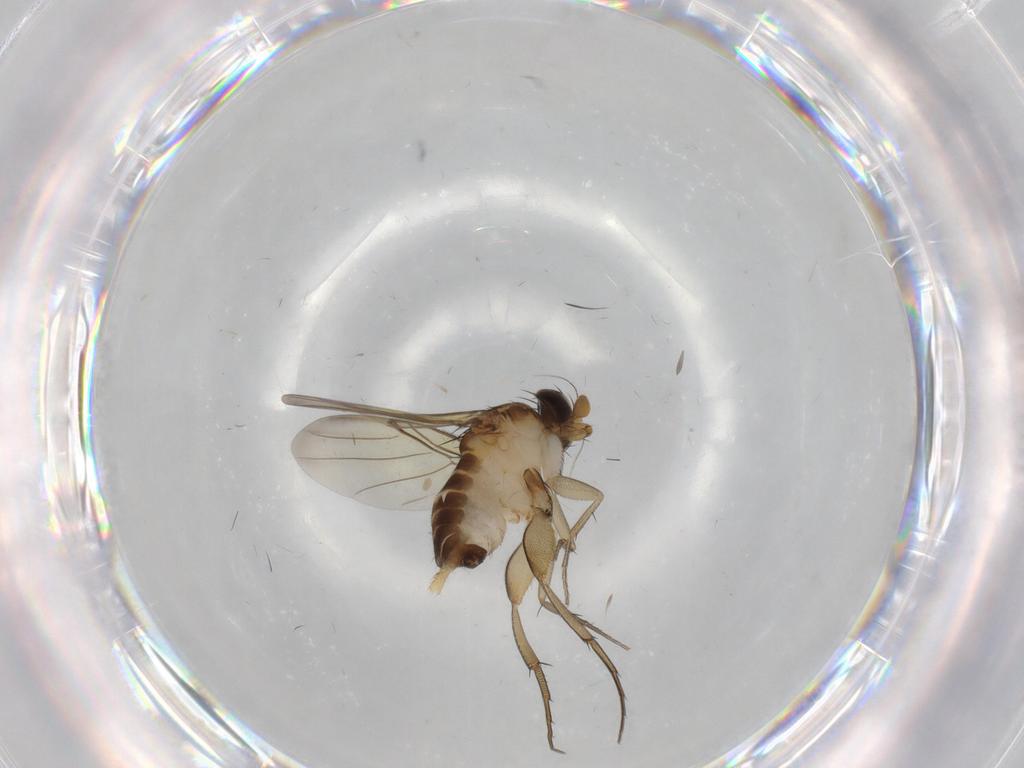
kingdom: Animalia
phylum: Arthropoda
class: Insecta
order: Diptera
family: Phoridae
